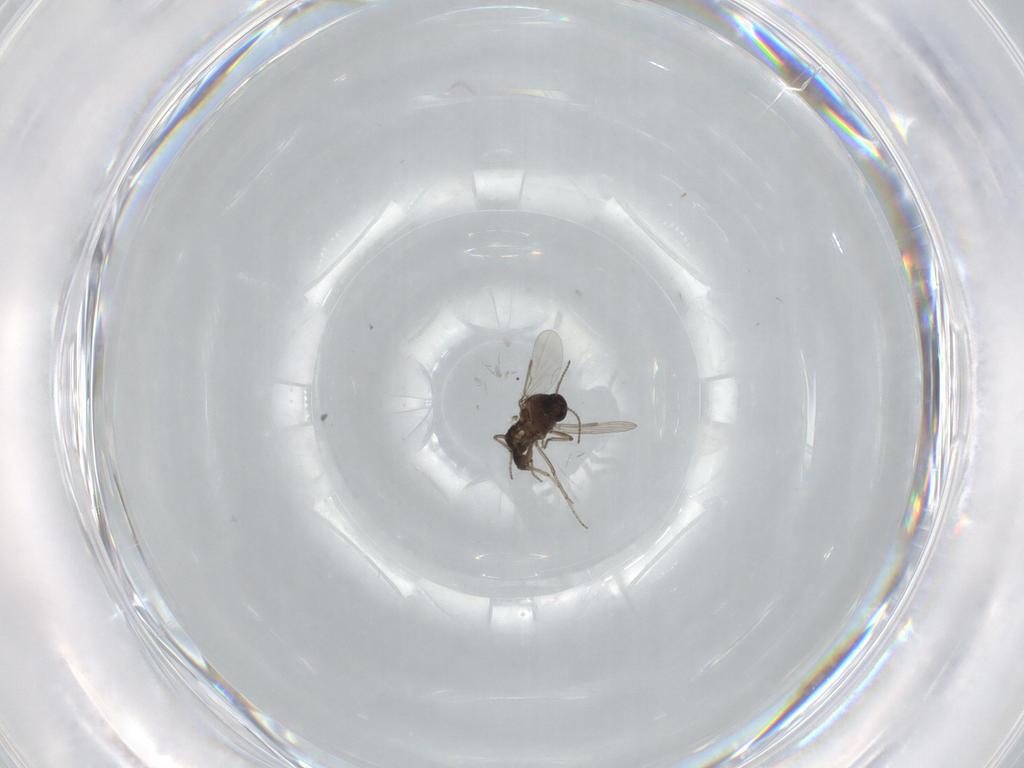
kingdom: Animalia
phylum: Arthropoda
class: Insecta
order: Diptera
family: Ceratopogonidae
